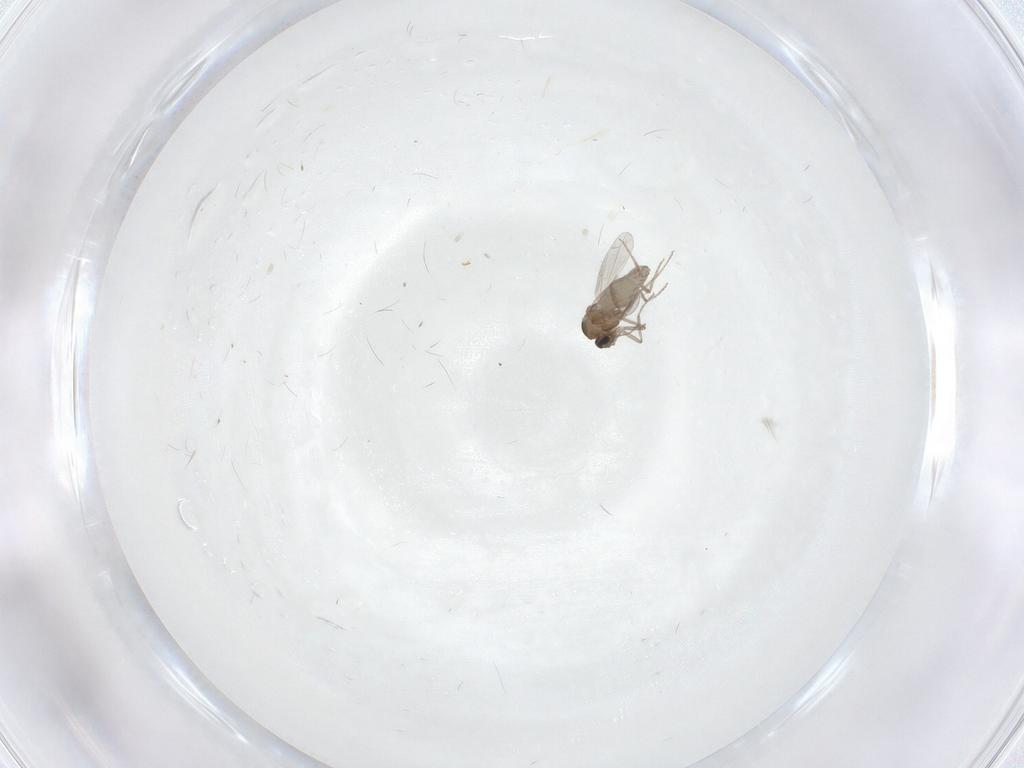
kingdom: Animalia
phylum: Arthropoda
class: Insecta
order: Diptera
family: Ceratopogonidae
